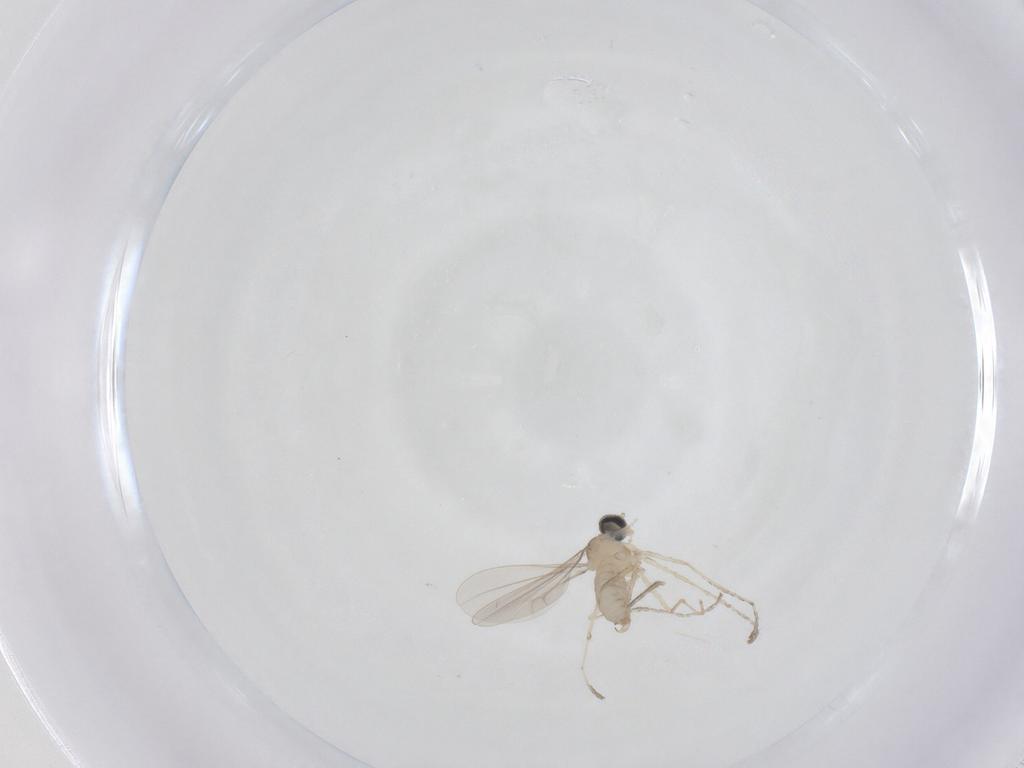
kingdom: Animalia
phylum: Arthropoda
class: Insecta
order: Diptera
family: Cecidomyiidae
